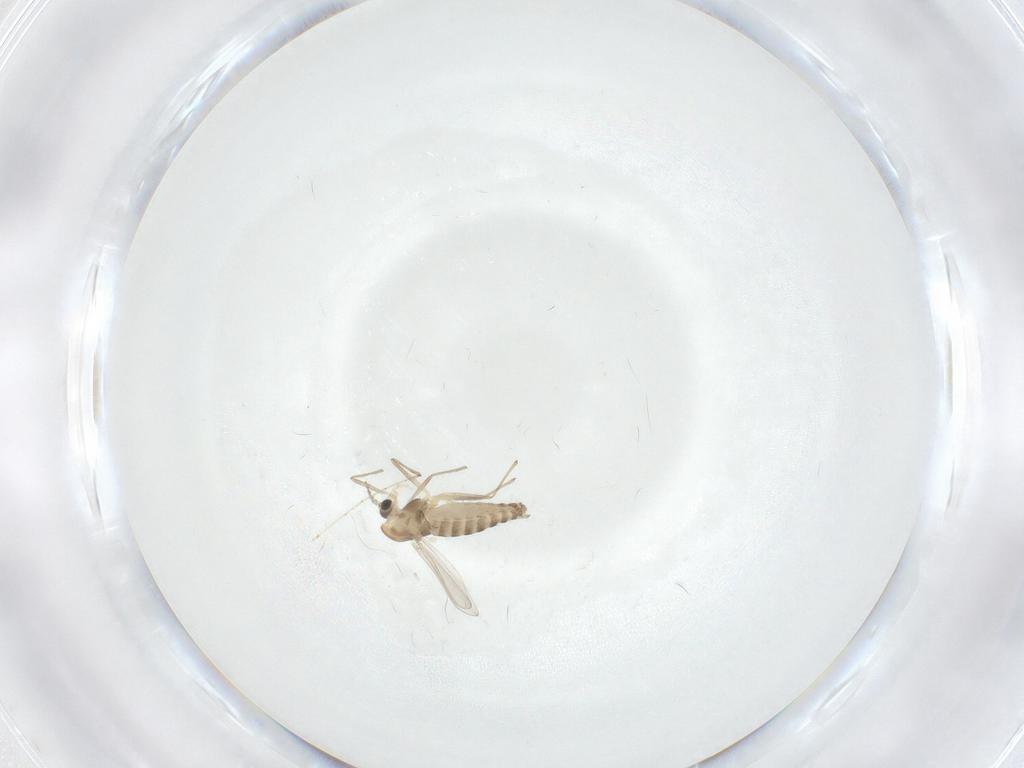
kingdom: Animalia
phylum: Arthropoda
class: Insecta
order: Diptera
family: Chironomidae
